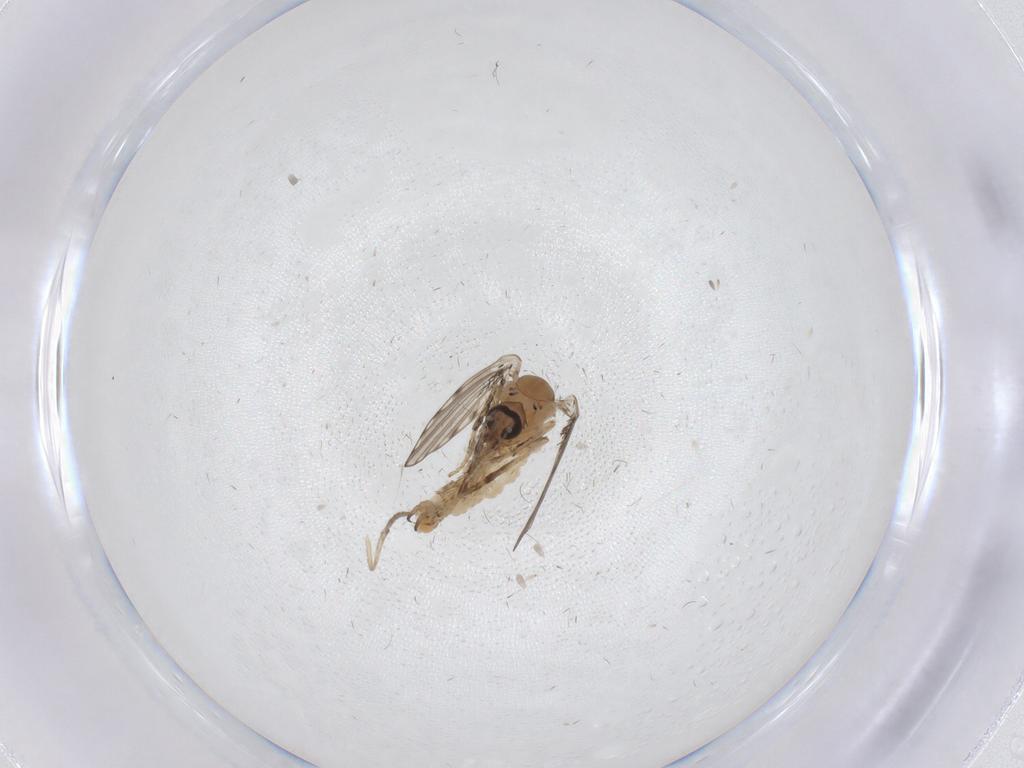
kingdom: Animalia
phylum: Arthropoda
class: Insecta
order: Diptera
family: Psychodidae
